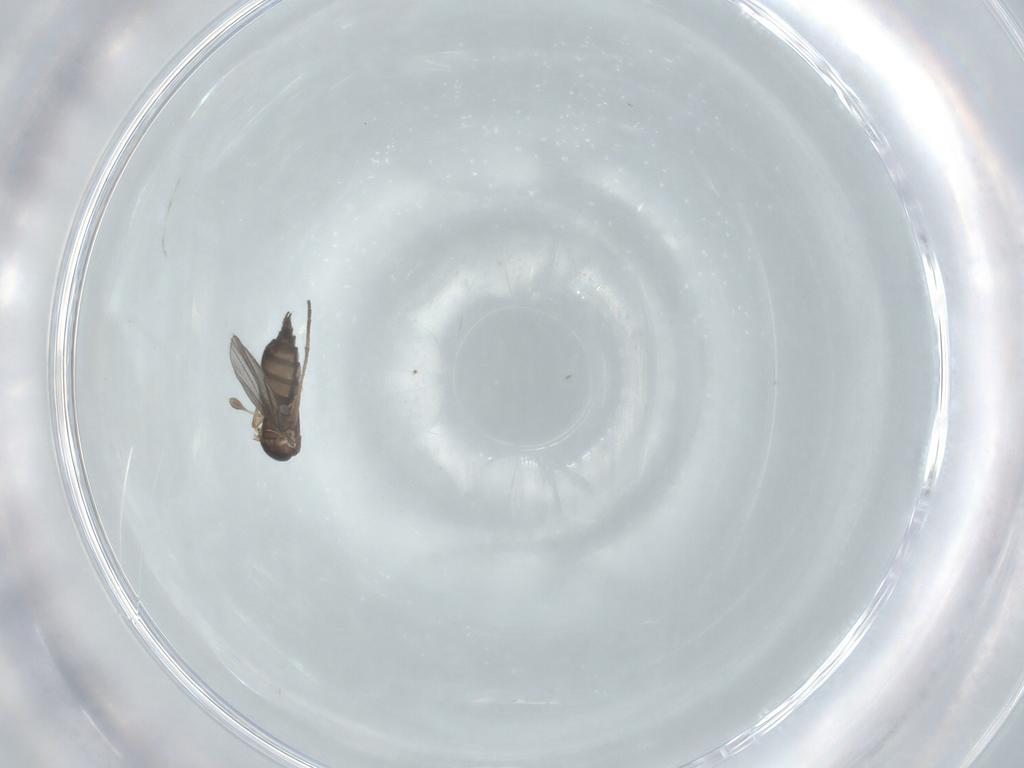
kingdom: Animalia
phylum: Arthropoda
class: Insecta
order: Diptera
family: Sciaridae
